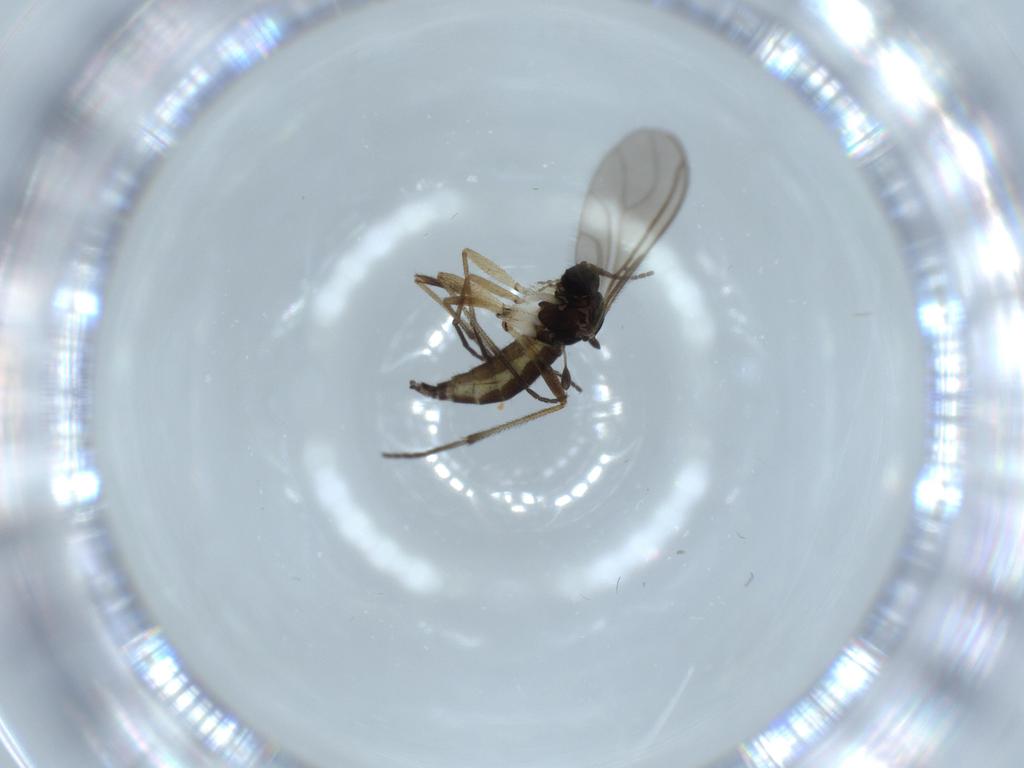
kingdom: Animalia
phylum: Arthropoda
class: Insecta
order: Diptera
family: Sciaridae
